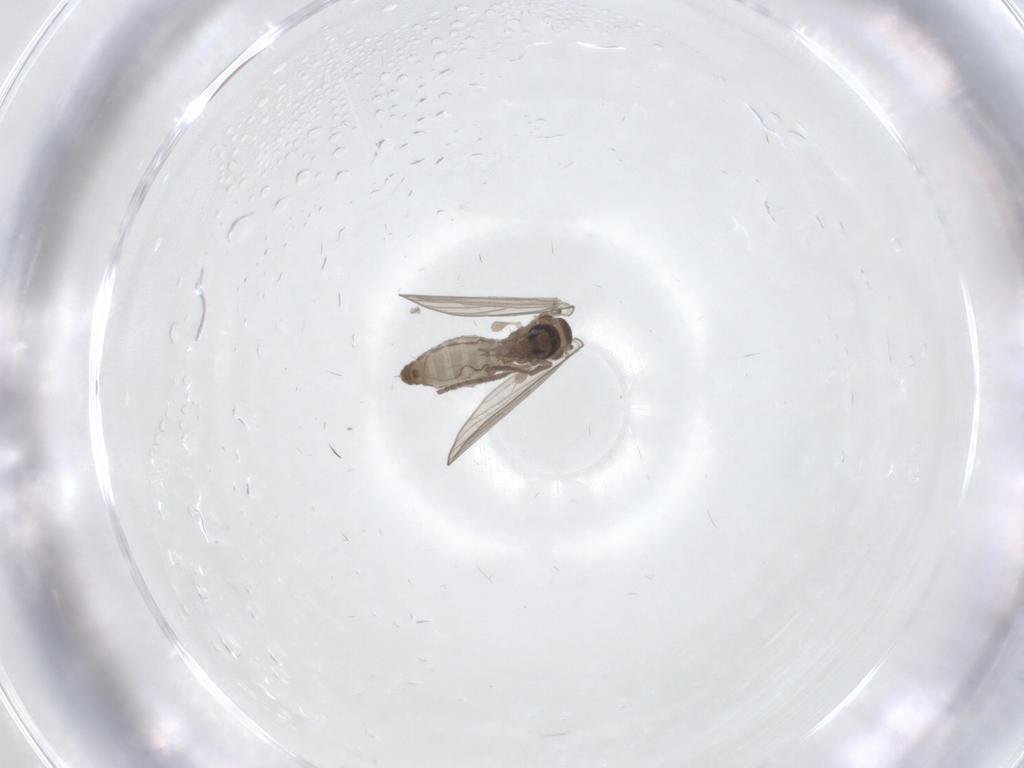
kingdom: Animalia
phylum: Arthropoda
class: Insecta
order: Diptera
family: Psychodidae
